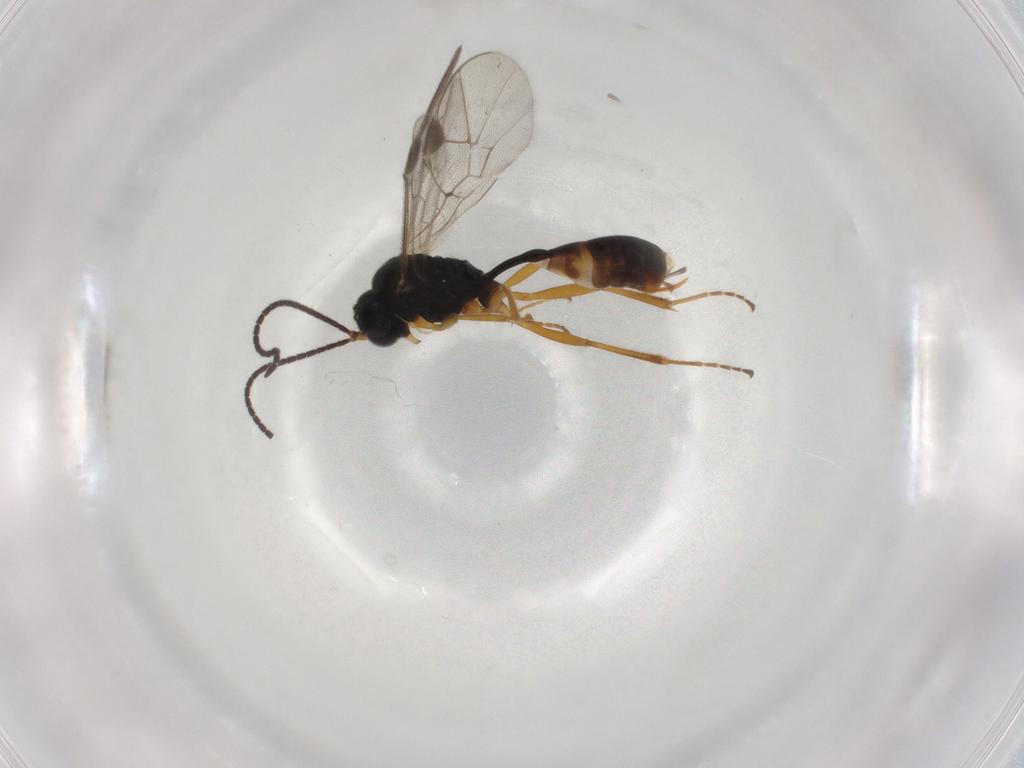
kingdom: Animalia
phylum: Arthropoda
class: Insecta
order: Hymenoptera
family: Ichneumonidae
